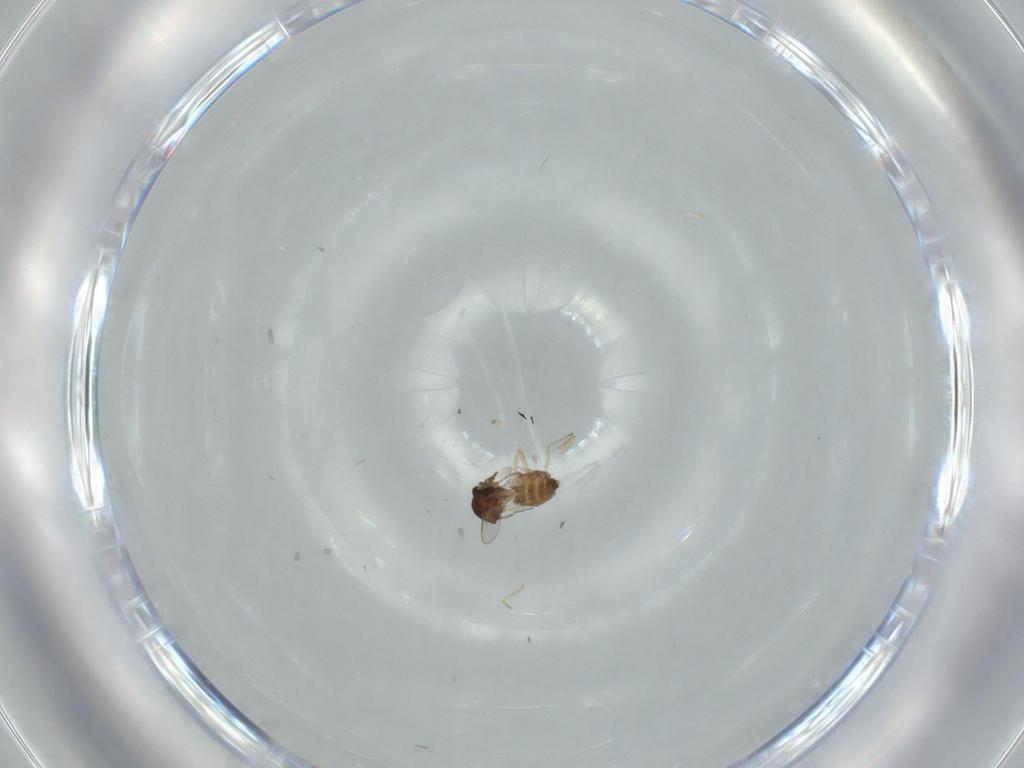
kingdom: Animalia
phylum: Arthropoda
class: Insecta
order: Diptera
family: Ceratopogonidae
